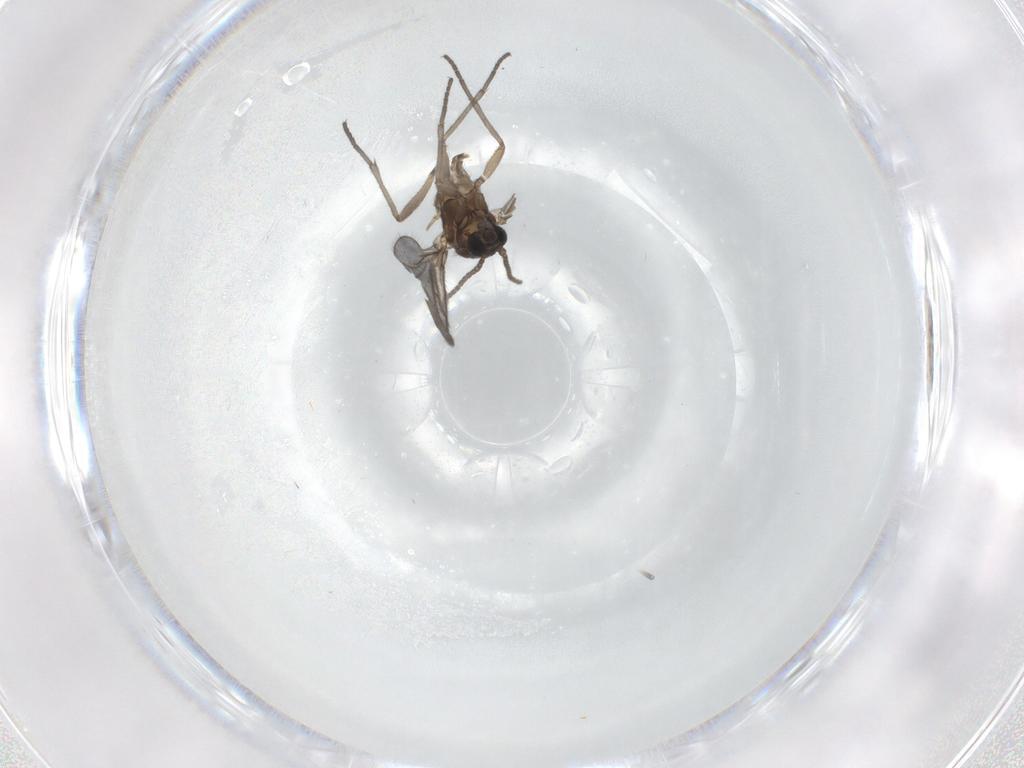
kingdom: Animalia
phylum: Arthropoda
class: Insecta
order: Diptera
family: Sciaridae
